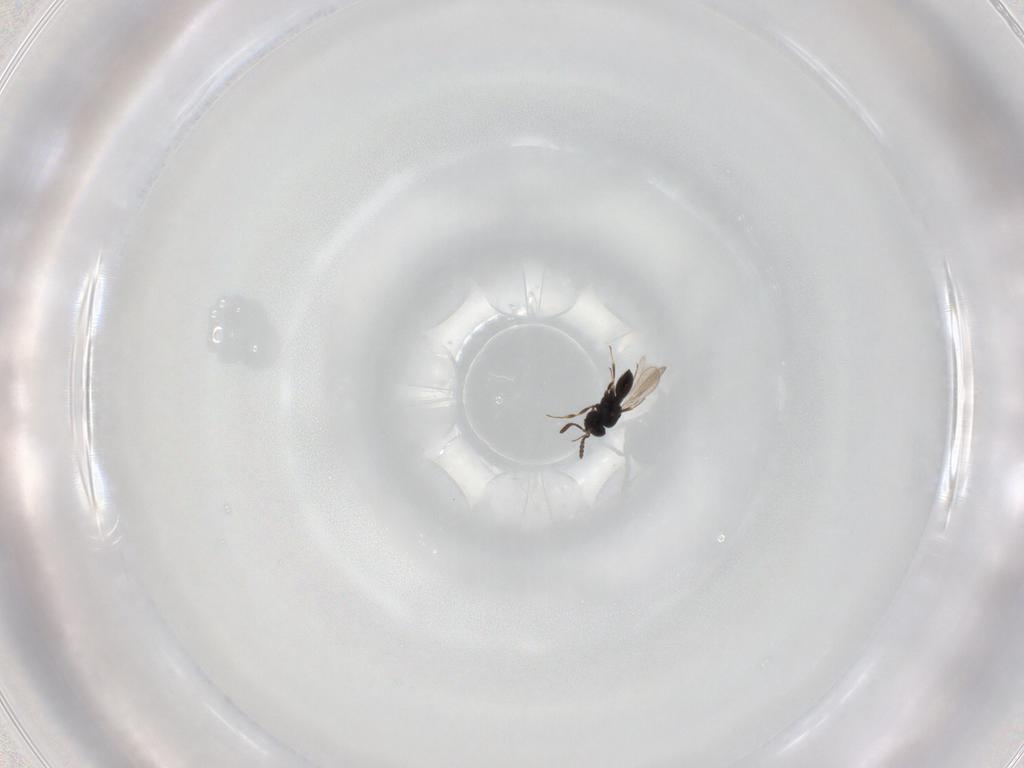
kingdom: Animalia
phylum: Arthropoda
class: Insecta
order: Hymenoptera
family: Scelionidae
